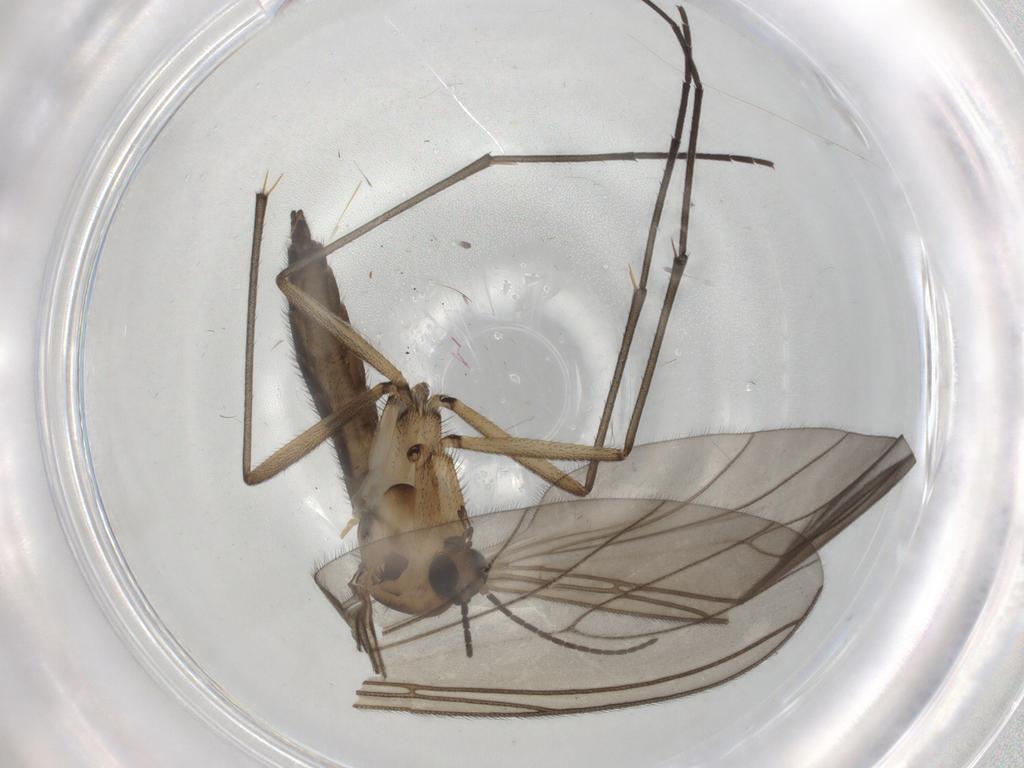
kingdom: Animalia
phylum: Arthropoda
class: Insecta
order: Diptera
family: Sciaridae
